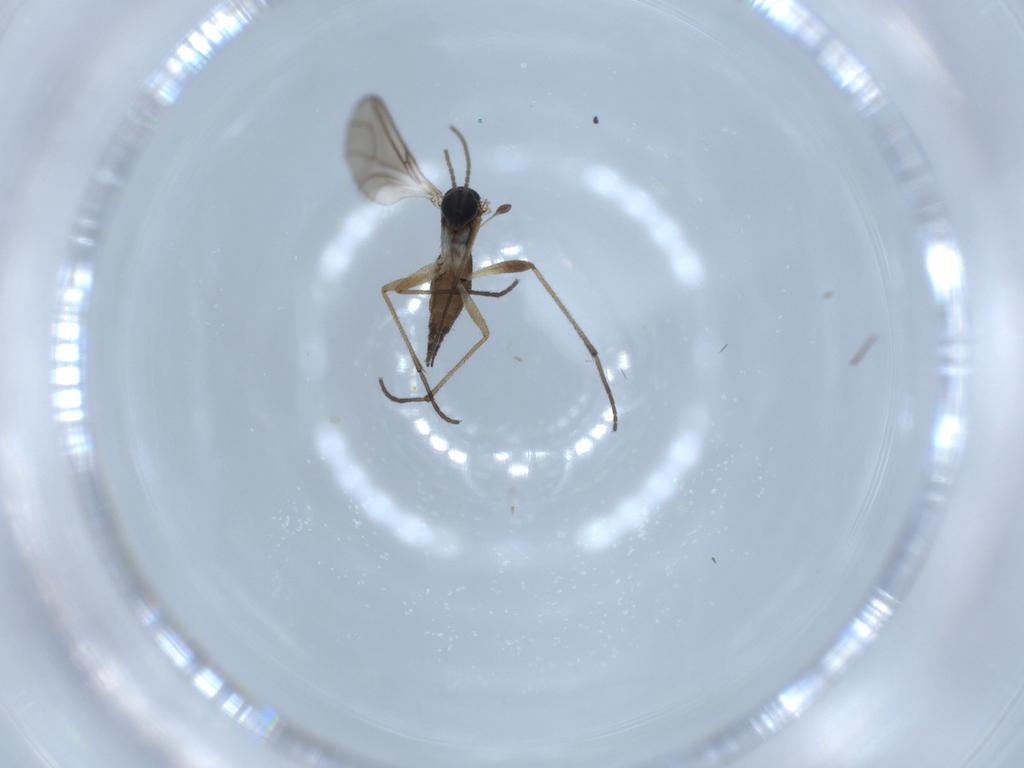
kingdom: Animalia
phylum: Arthropoda
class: Insecta
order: Diptera
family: Sciaridae
